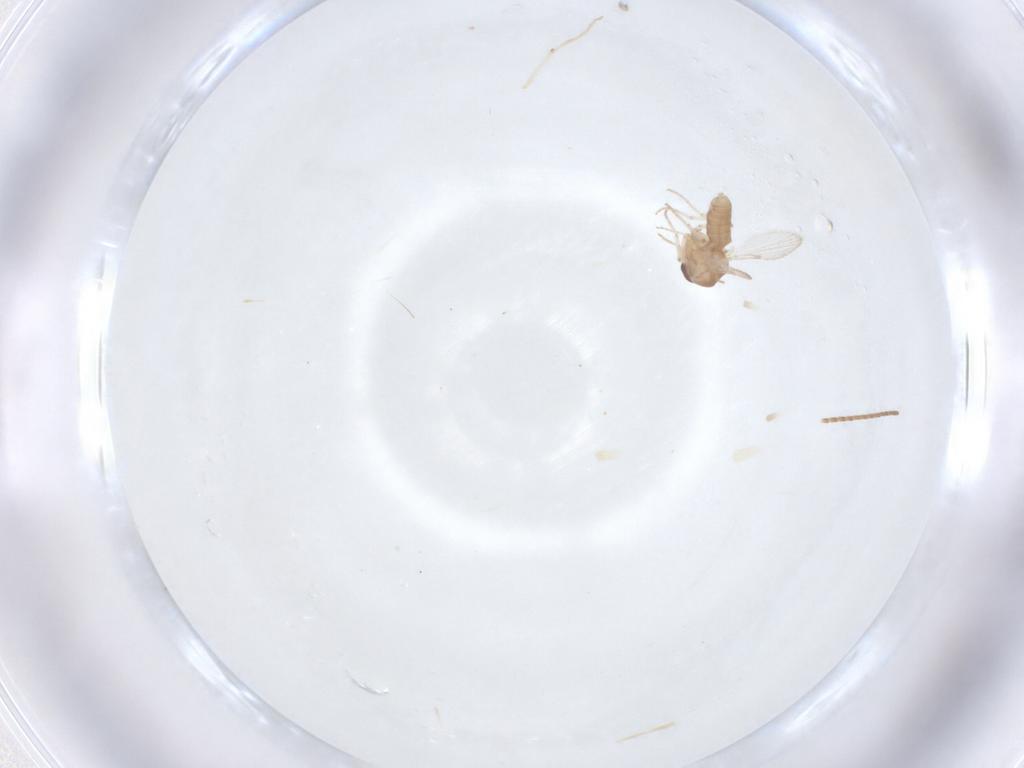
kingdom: Animalia
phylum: Arthropoda
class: Insecta
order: Diptera
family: Ceratopogonidae
